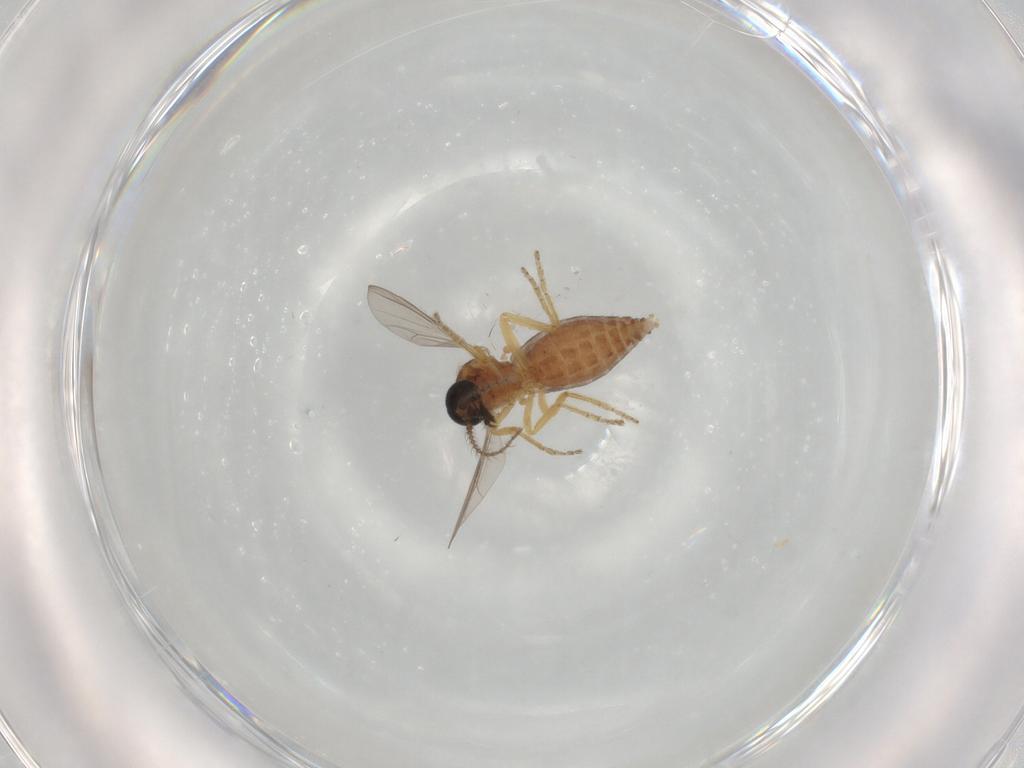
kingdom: Animalia
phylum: Arthropoda
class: Insecta
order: Diptera
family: Ceratopogonidae
